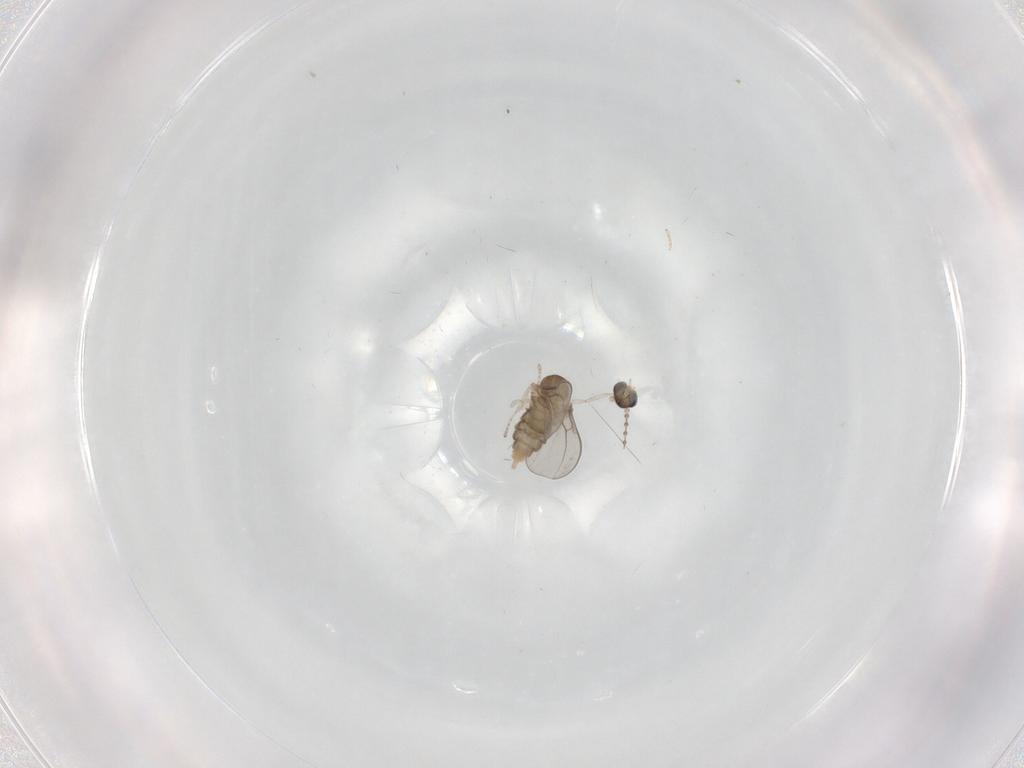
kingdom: Animalia
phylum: Arthropoda
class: Insecta
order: Diptera
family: Cecidomyiidae
